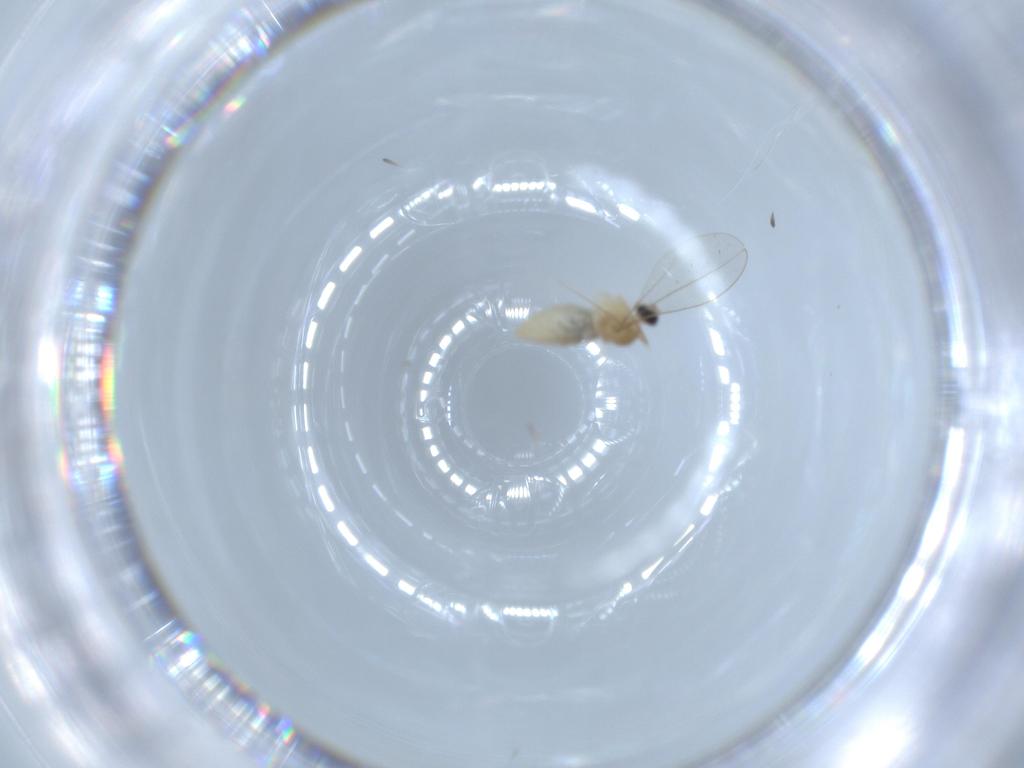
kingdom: Animalia
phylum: Arthropoda
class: Insecta
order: Diptera
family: Cecidomyiidae
